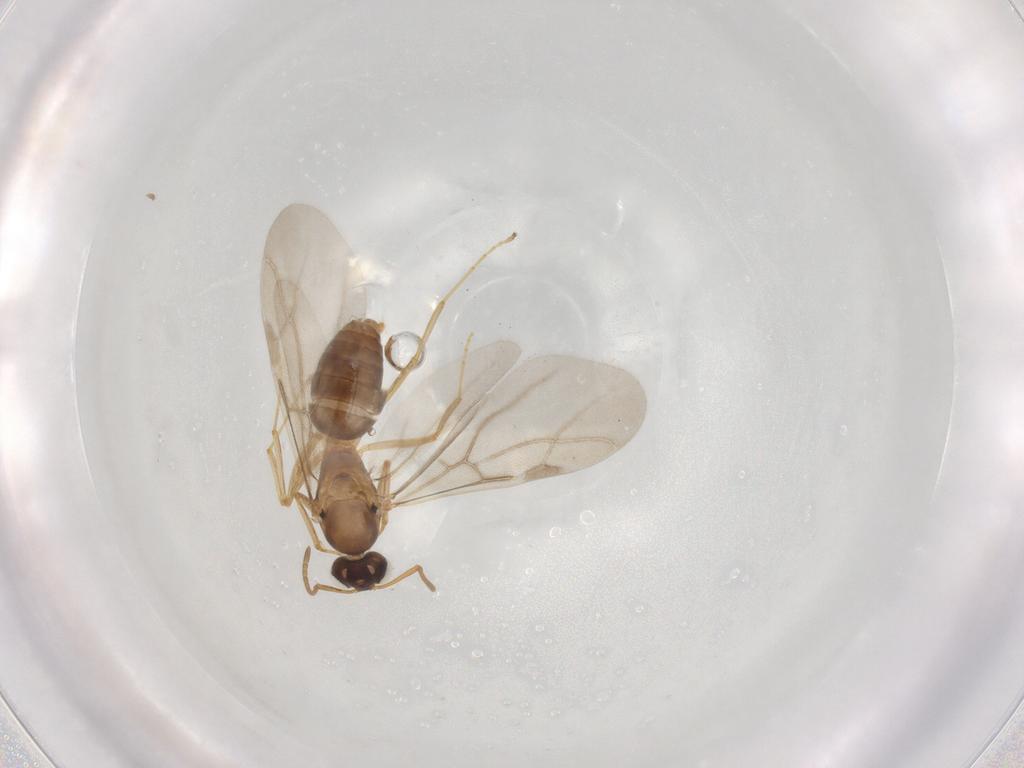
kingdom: Animalia
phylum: Arthropoda
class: Insecta
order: Hymenoptera
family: Formicidae
